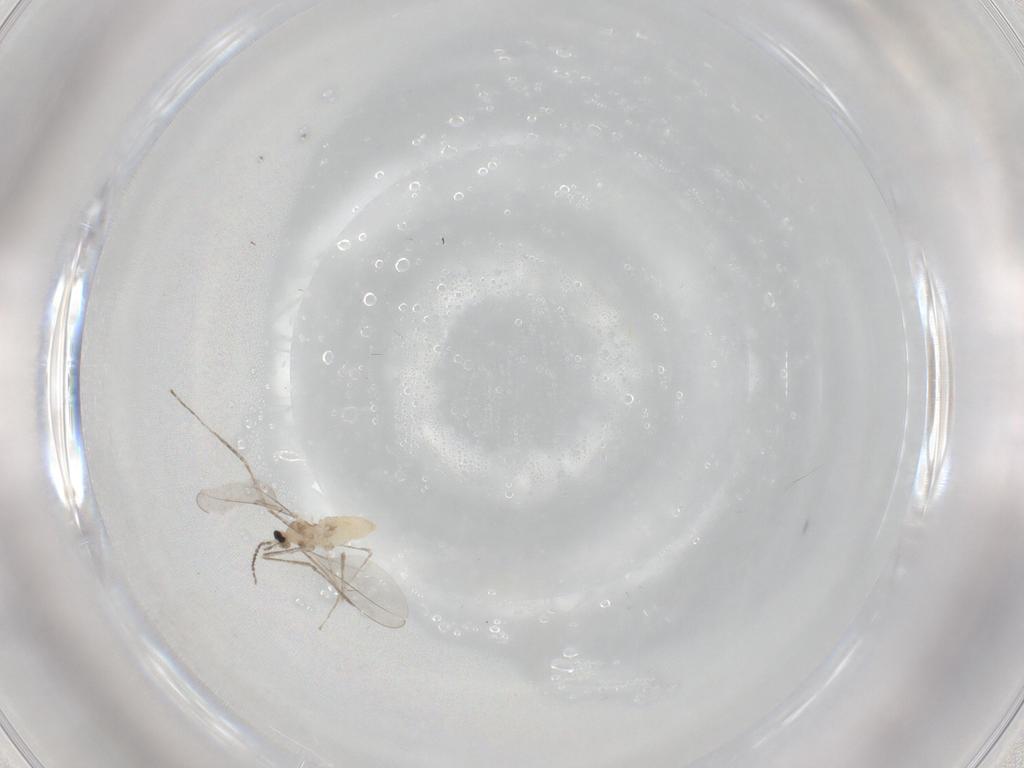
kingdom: Animalia
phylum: Arthropoda
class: Insecta
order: Diptera
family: Cecidomyiidae
